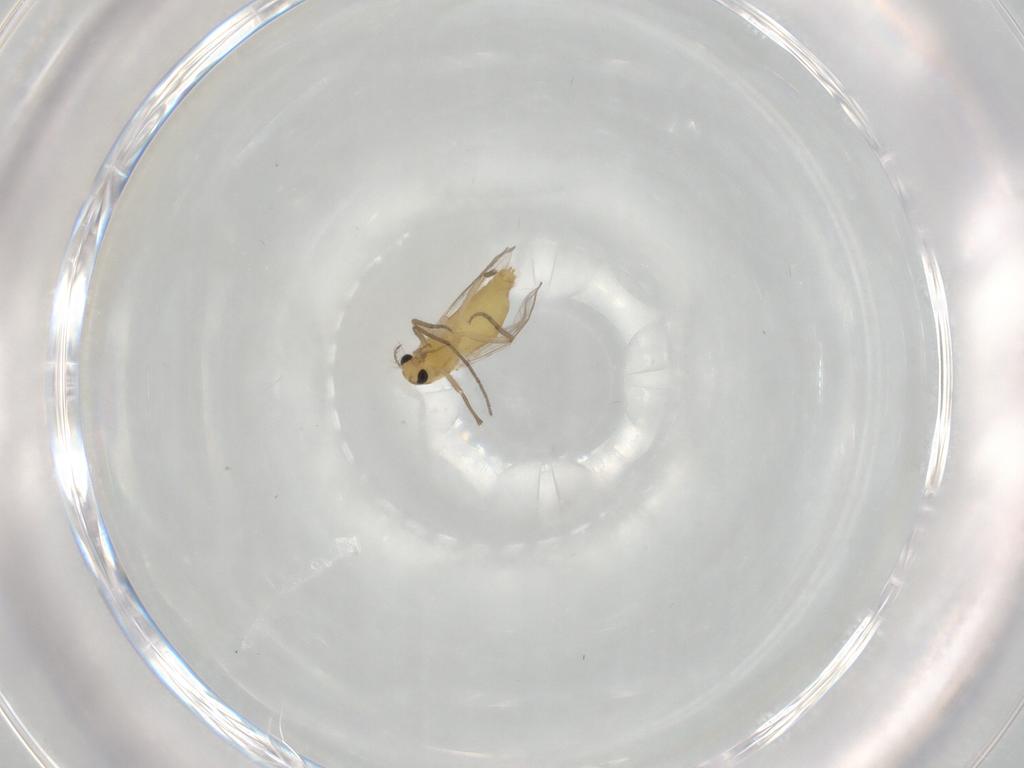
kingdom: Animalia
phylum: Arthropoda
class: Insecta
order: Diptera
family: Chironomidae
